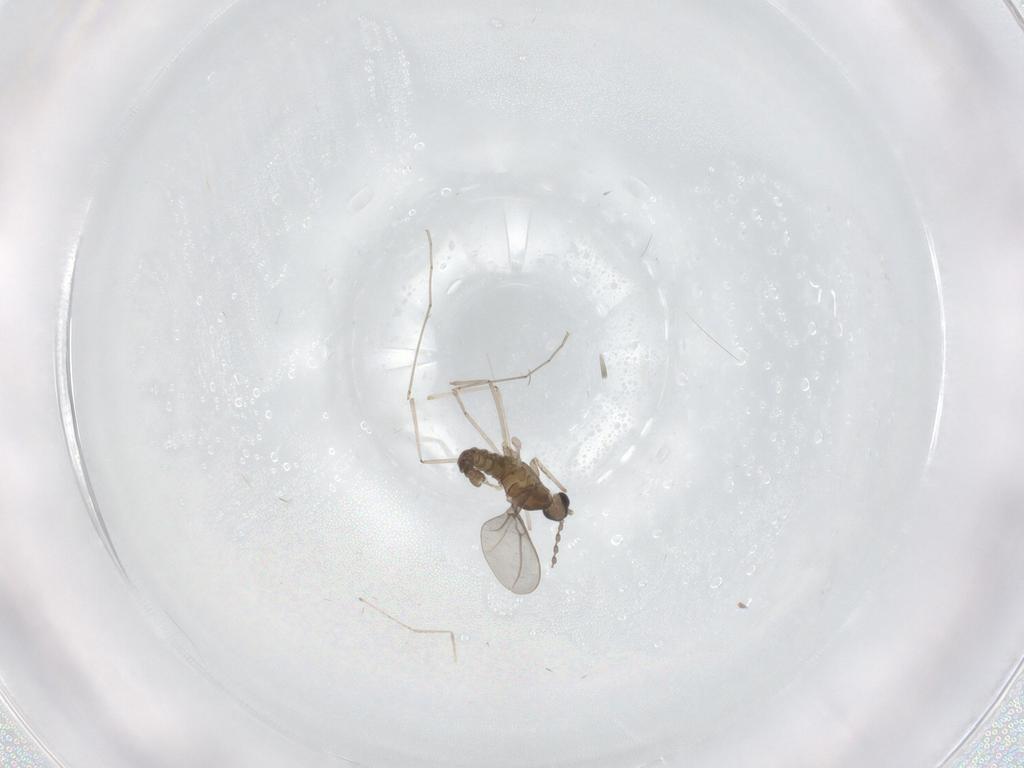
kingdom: Animalia
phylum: Arthropoda
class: Insecta
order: Diptera
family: Cecidomyiidae
